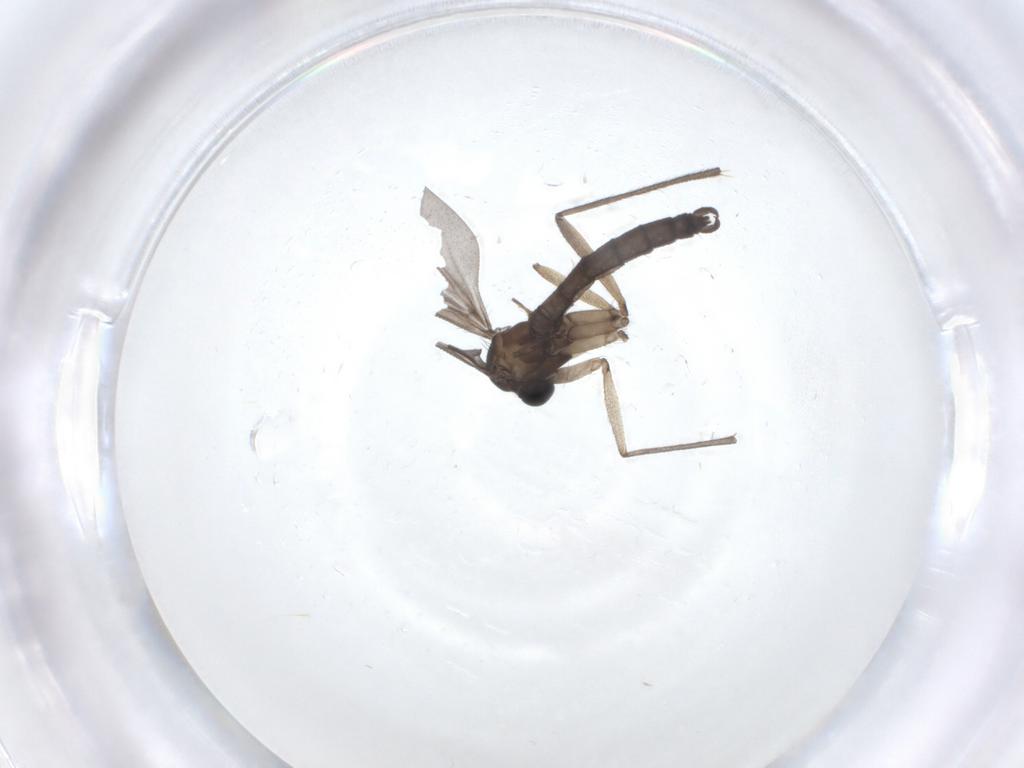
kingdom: Animalia
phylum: Arthropoda
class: Insecta
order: Diptera
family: Sciaridae
